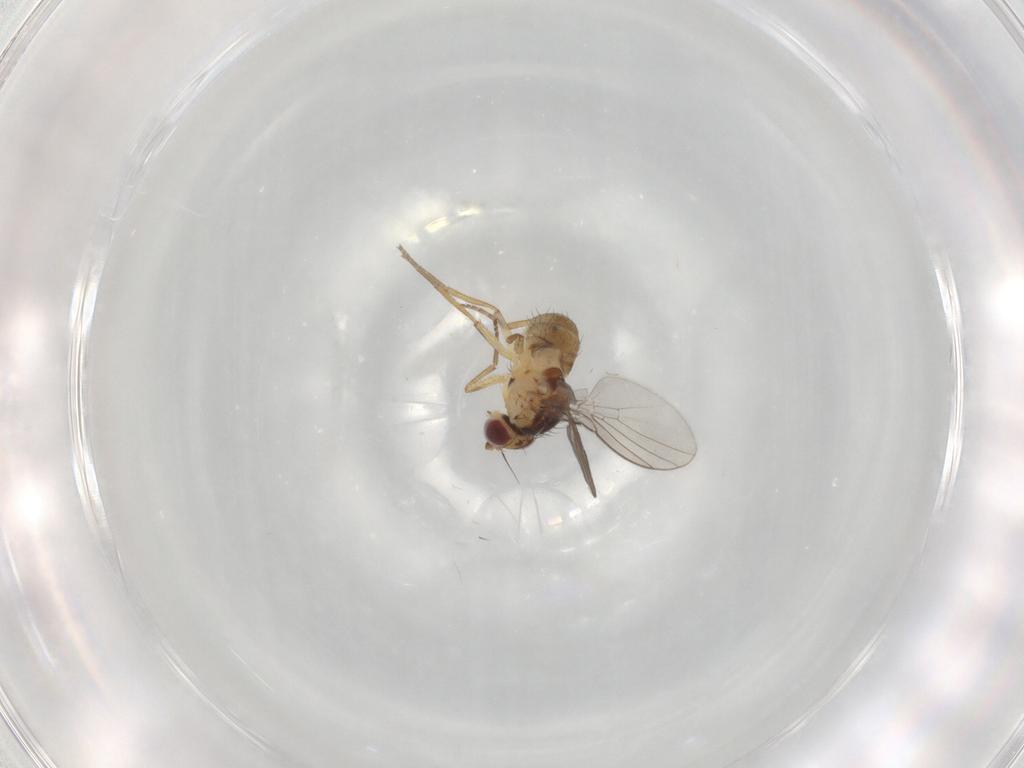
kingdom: Animalia
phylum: Arthropoda
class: Insecta
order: Diptera
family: Agromyzidae
